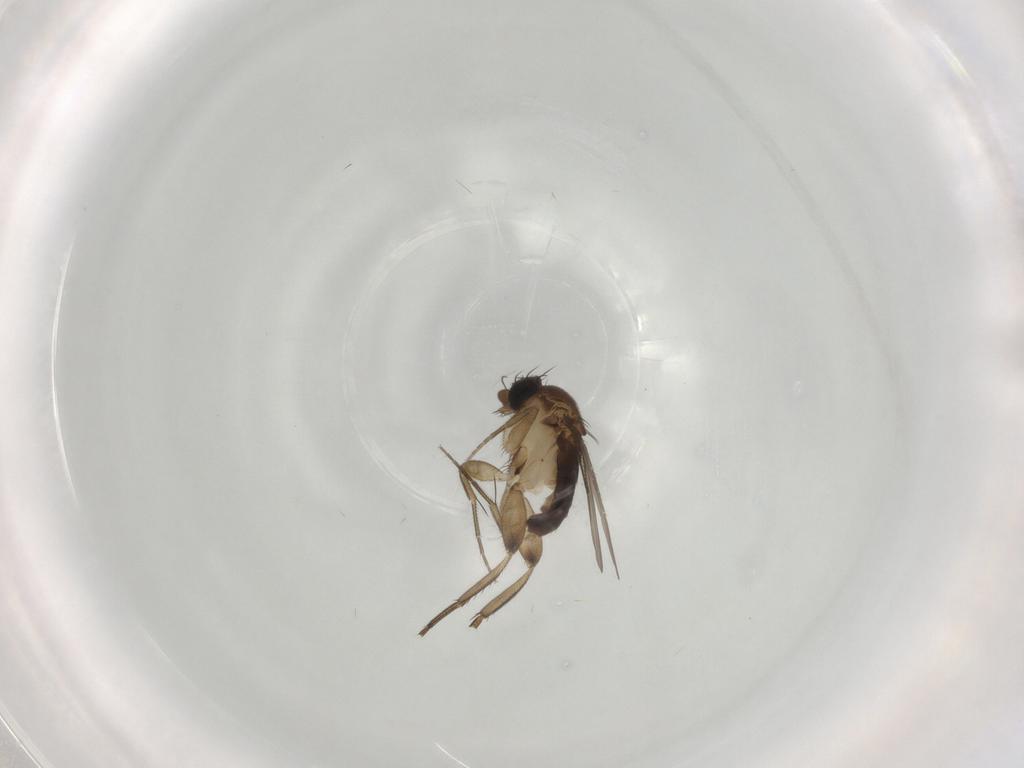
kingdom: Animalia
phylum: Arthropoda
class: Insecta
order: Diptera
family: Phoridae
